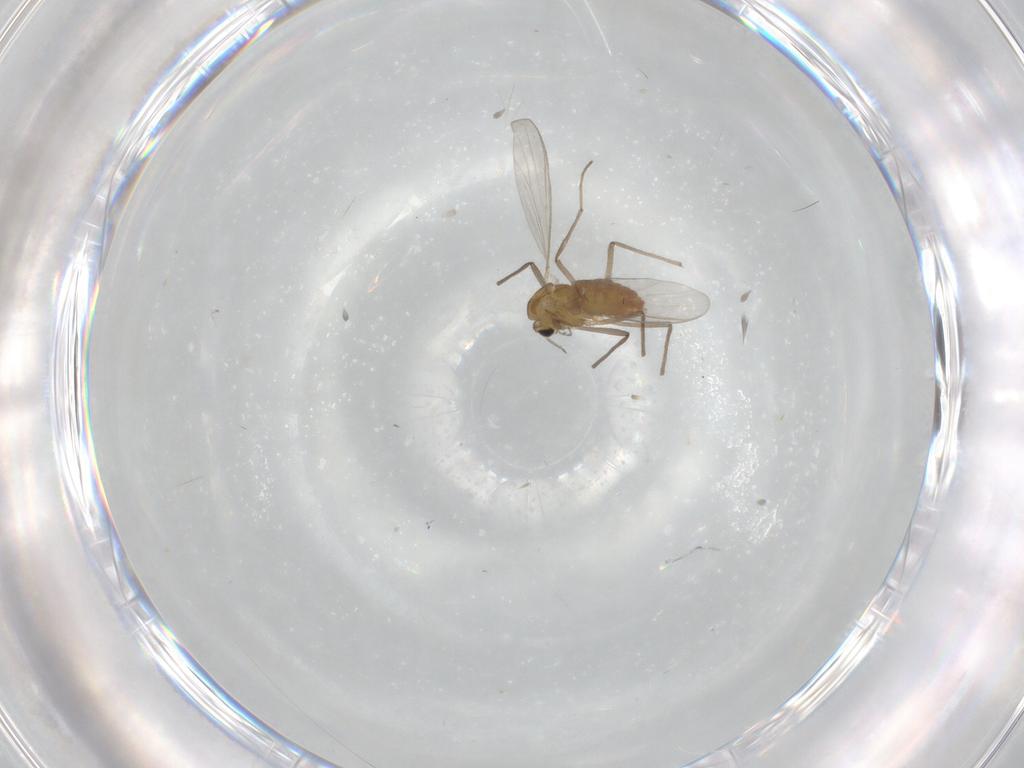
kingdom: Animalia
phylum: Arthropoda
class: Insecta
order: Diptera
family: Chironomidae
